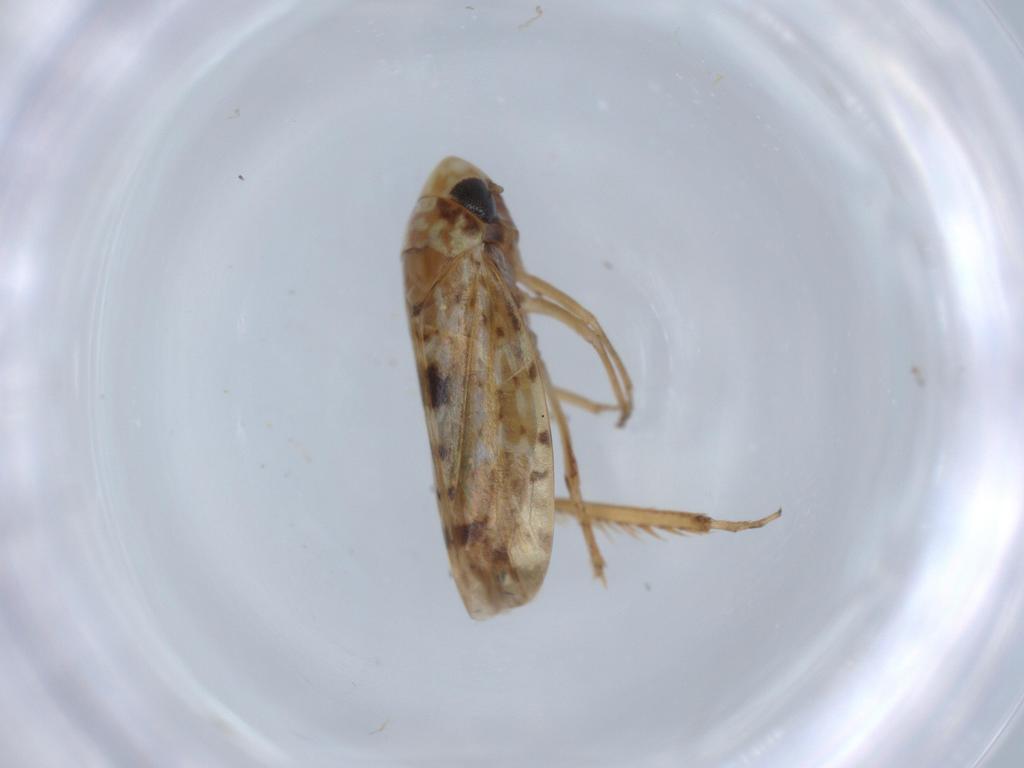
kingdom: Animalia
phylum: Arthropoda
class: Insecta
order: Hemiptera
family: Cicadellidae
